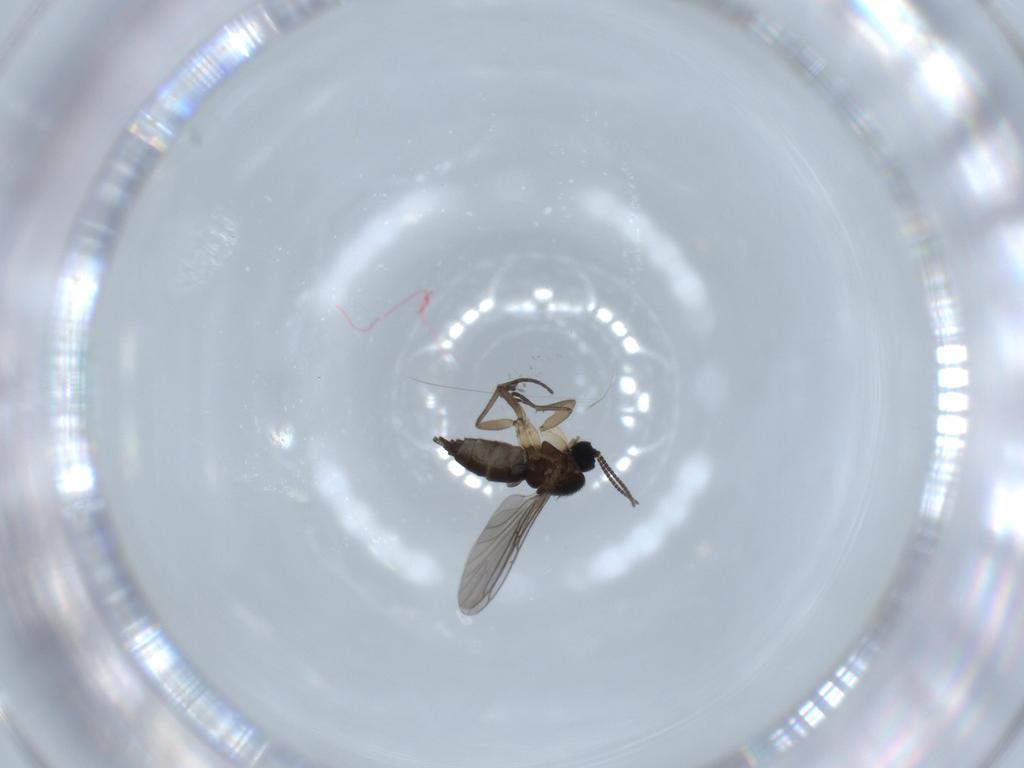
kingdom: Animalia
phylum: Arthropoda
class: Insecta
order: Diptera
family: Sciaridae
